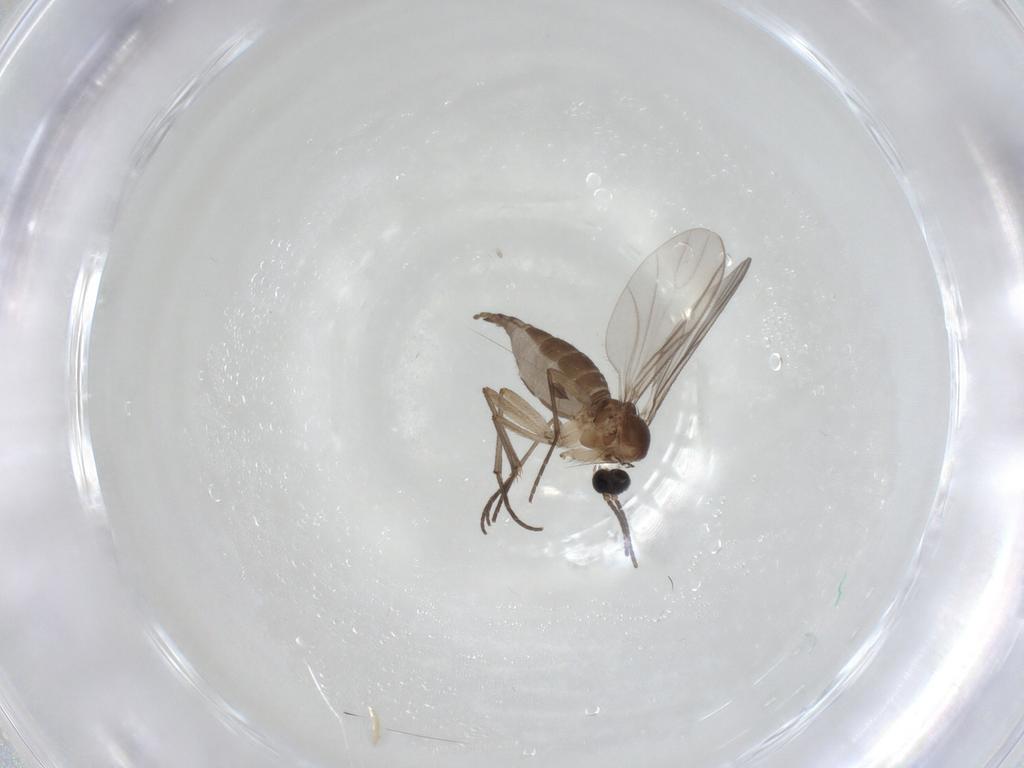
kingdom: Animalia
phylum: Arthropoda
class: Insecta
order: Diptera
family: Sciaridae
